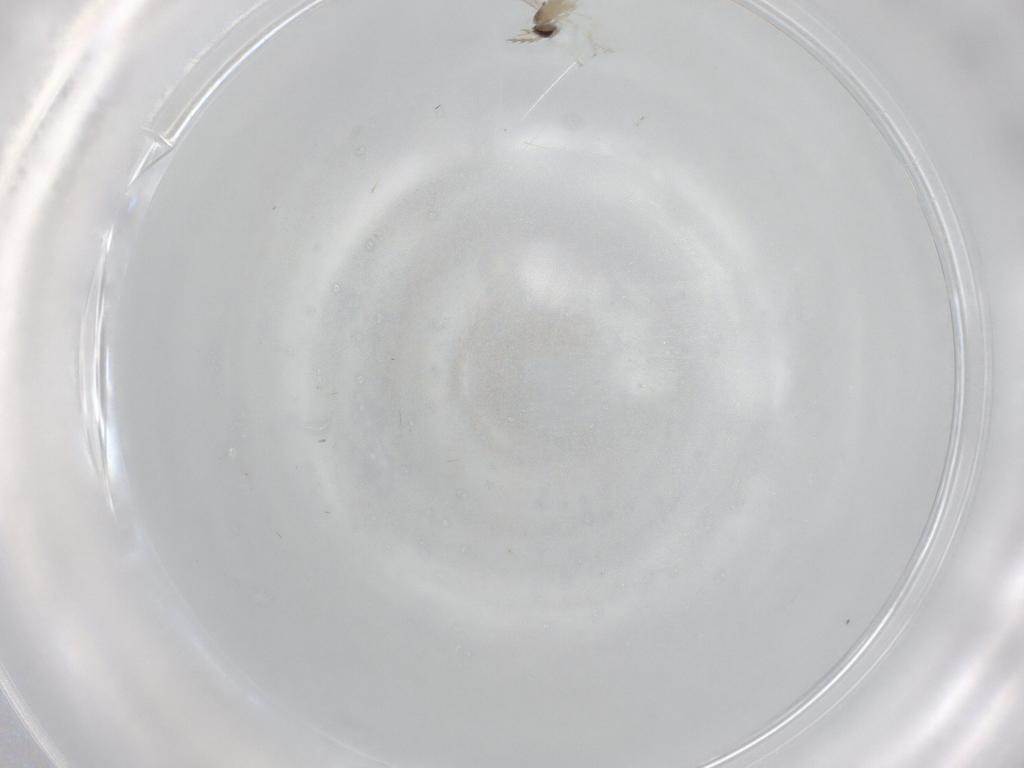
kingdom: Animalia
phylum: Arthropoda
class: Insecta
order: Diptera
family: Cecidomyiidae
